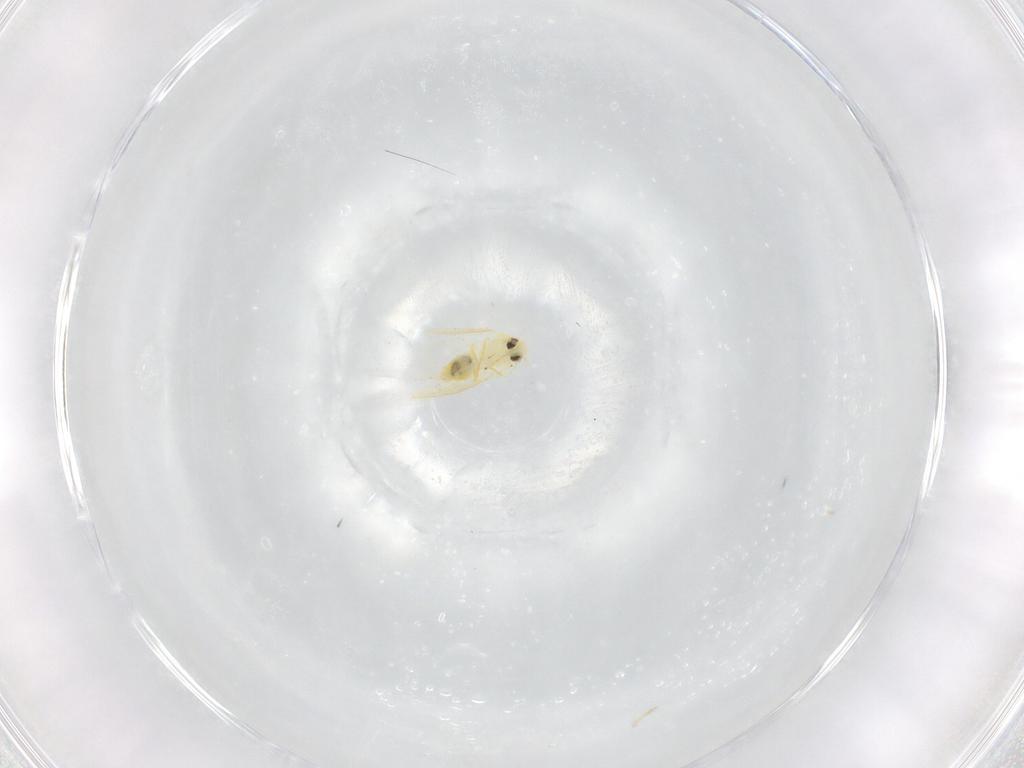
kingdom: Animalia
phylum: Arthropoda
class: Insecta
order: Hemiptera
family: Aleyrodidae
